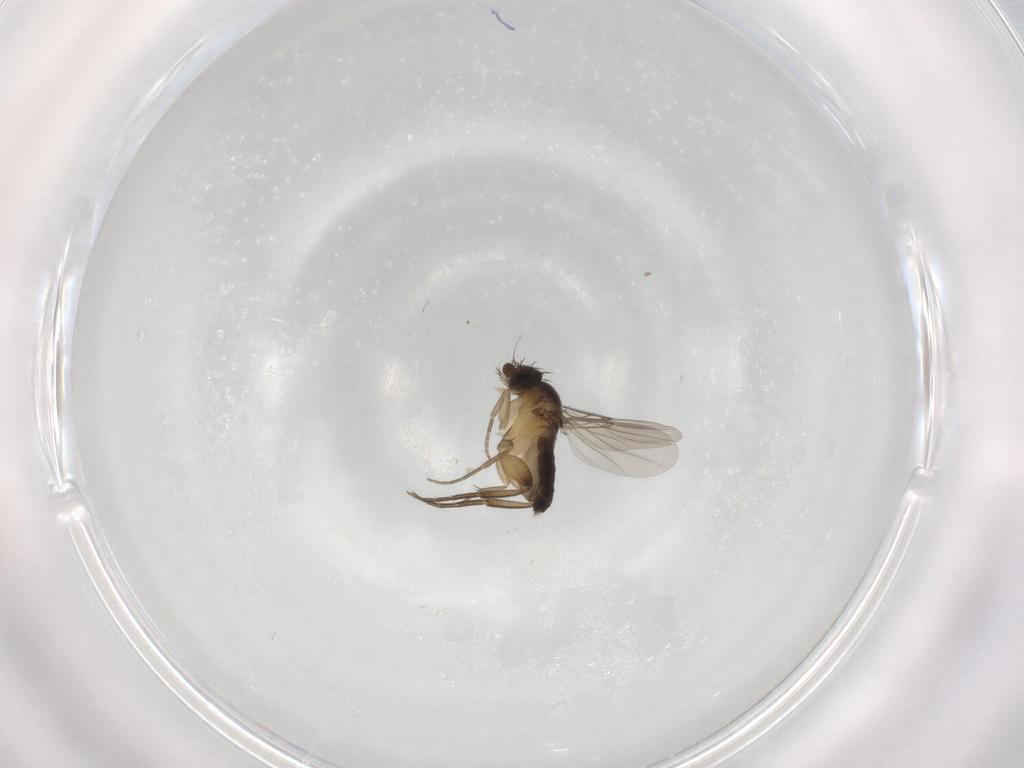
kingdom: Animalia
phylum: Arthropoda
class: Insecta
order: Diptera
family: Phoridae
